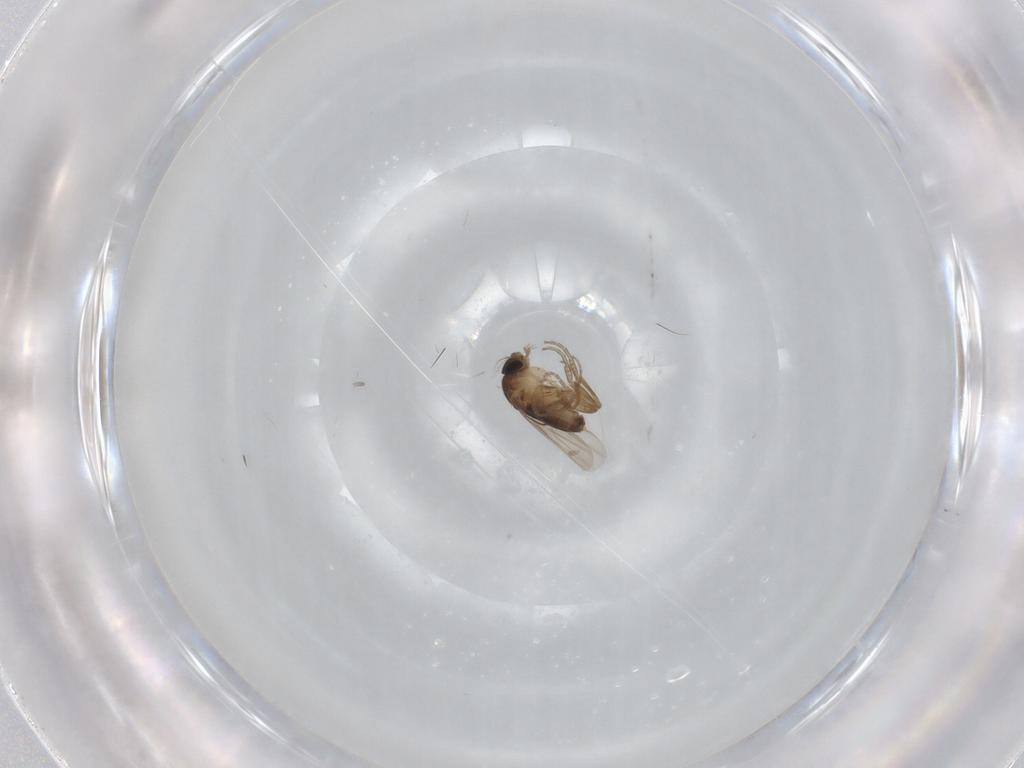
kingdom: Animalia
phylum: Arthropoda
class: Insecta
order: Diptera
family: Phoridae
